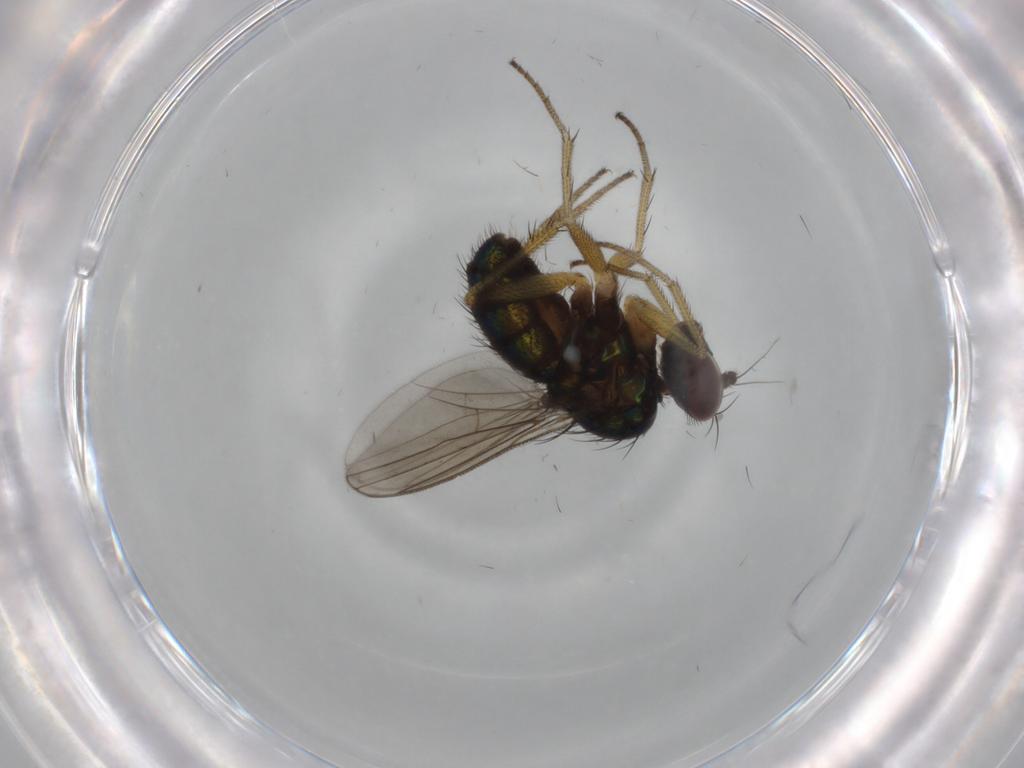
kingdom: Animalia
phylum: Arthropoda
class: Insecta
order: Diptera
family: Dolichopodidae
